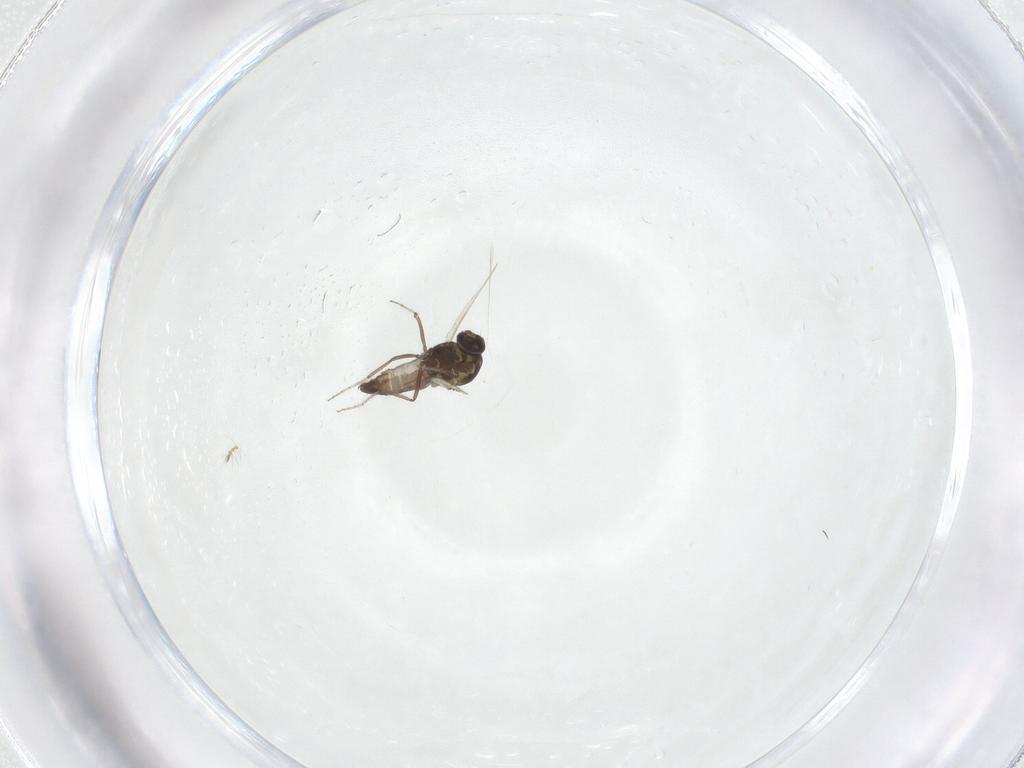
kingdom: Animalia
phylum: Arthropoda
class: Insecta
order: Diptera
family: Ceratopogonidae
